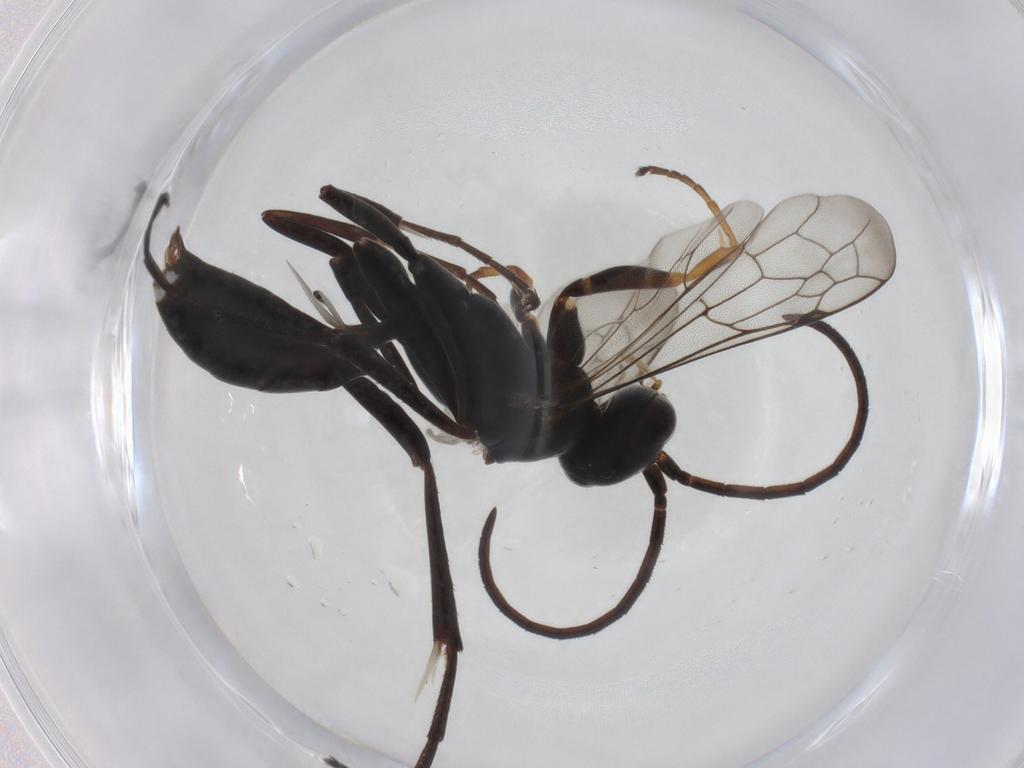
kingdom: Animalia
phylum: Arthropoda
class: Insecta
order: Hymenoptera
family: Pompilidae
